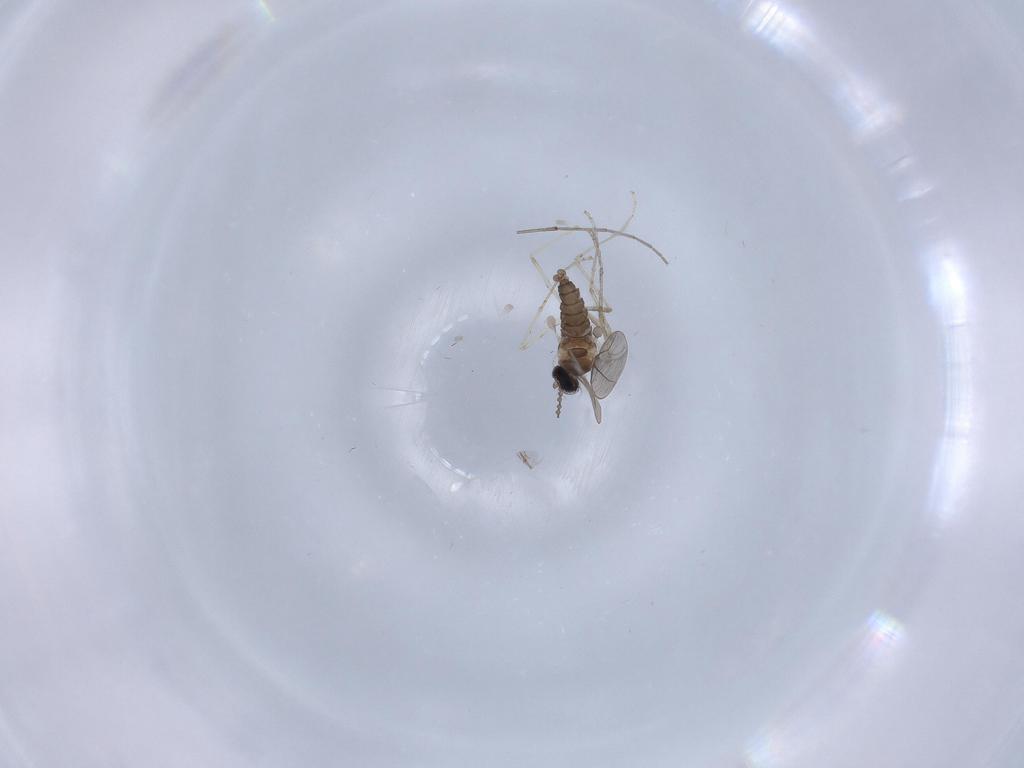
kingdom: Animalia
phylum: Arthropoda
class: Insecta
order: Diptera
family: Cecidomyiidae
